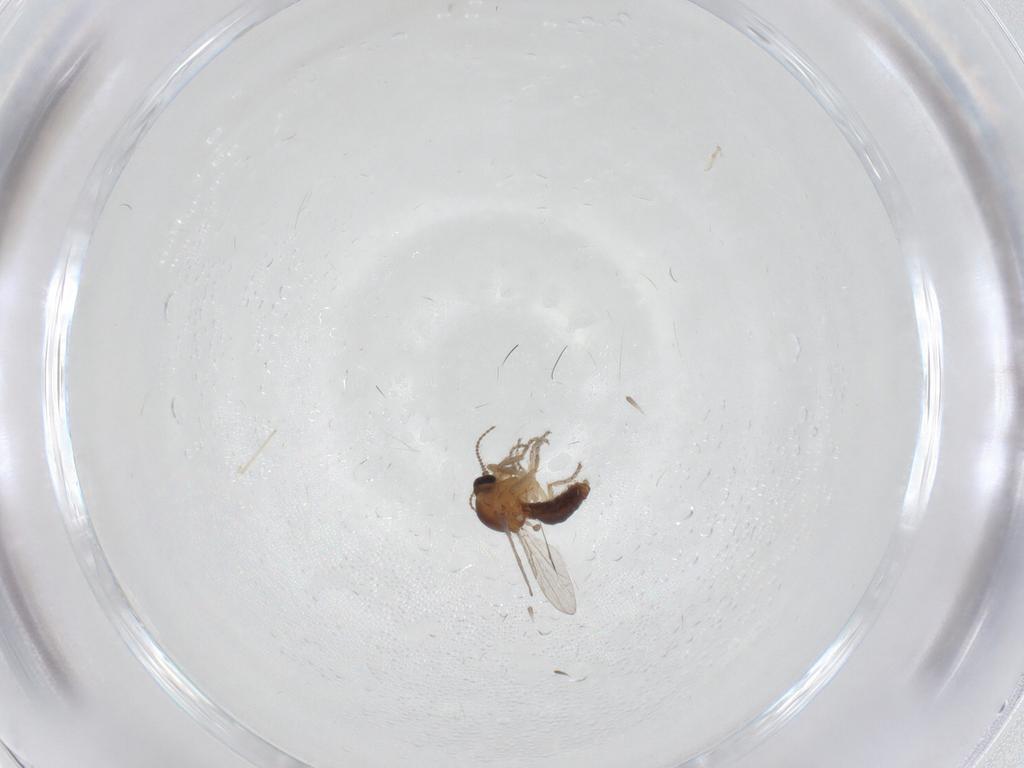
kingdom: Animalia
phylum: Arthropoda
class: Insecta
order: Diptera
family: Ceratopogonidae
